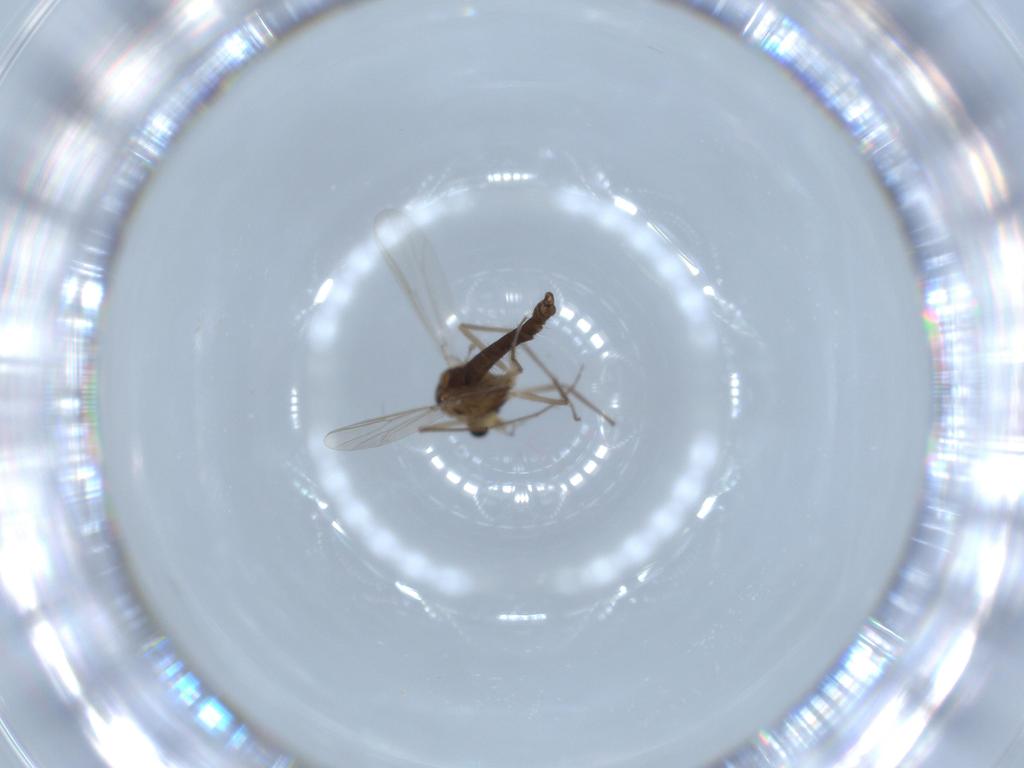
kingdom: Animalia
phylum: Arthropoda
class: Insecta
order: Diptera
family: Chironomidae
